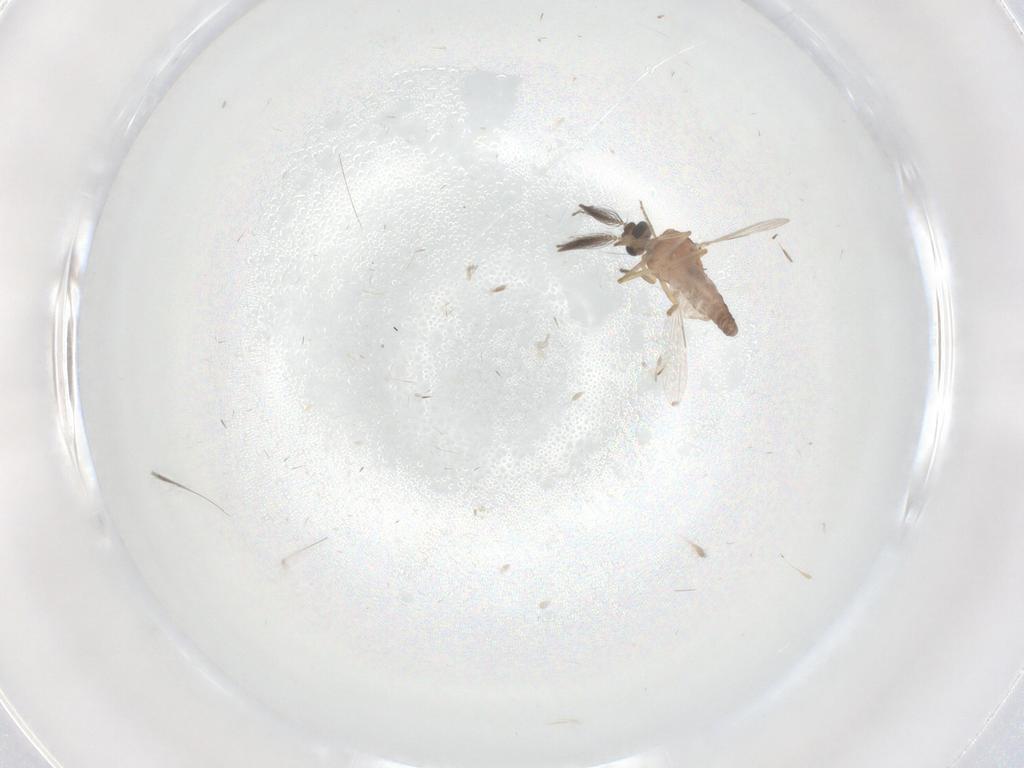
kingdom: Animalia
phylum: Arthropoda
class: Insecta
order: Diptera
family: Ceratopogonidae
